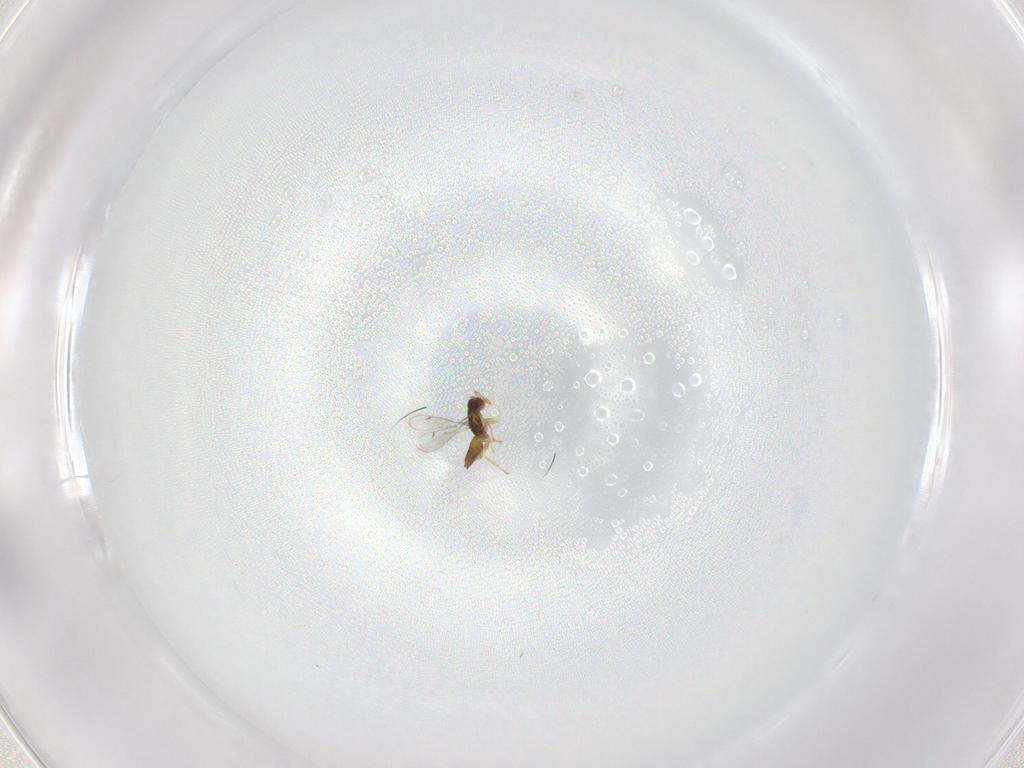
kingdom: Animalia
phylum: Arthropoda
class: Insecta
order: Hymenoptera
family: Eulophidae
